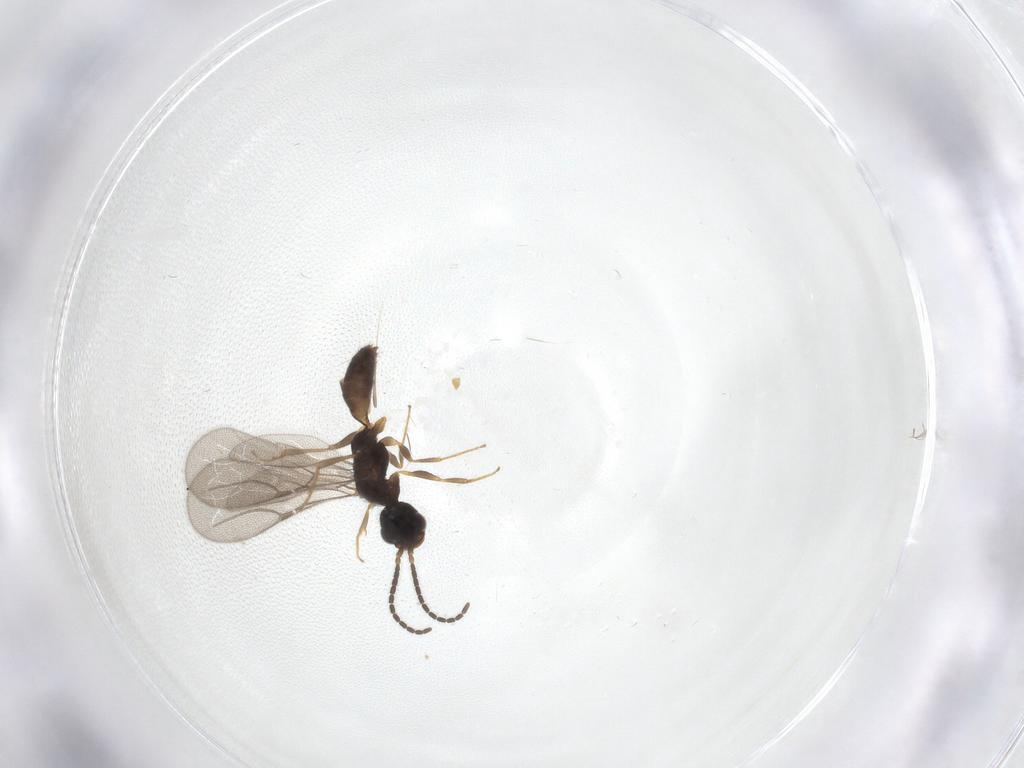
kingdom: Animalia
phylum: Arthropoda
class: Insecta
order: Hymenoptera
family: Bethylidae
